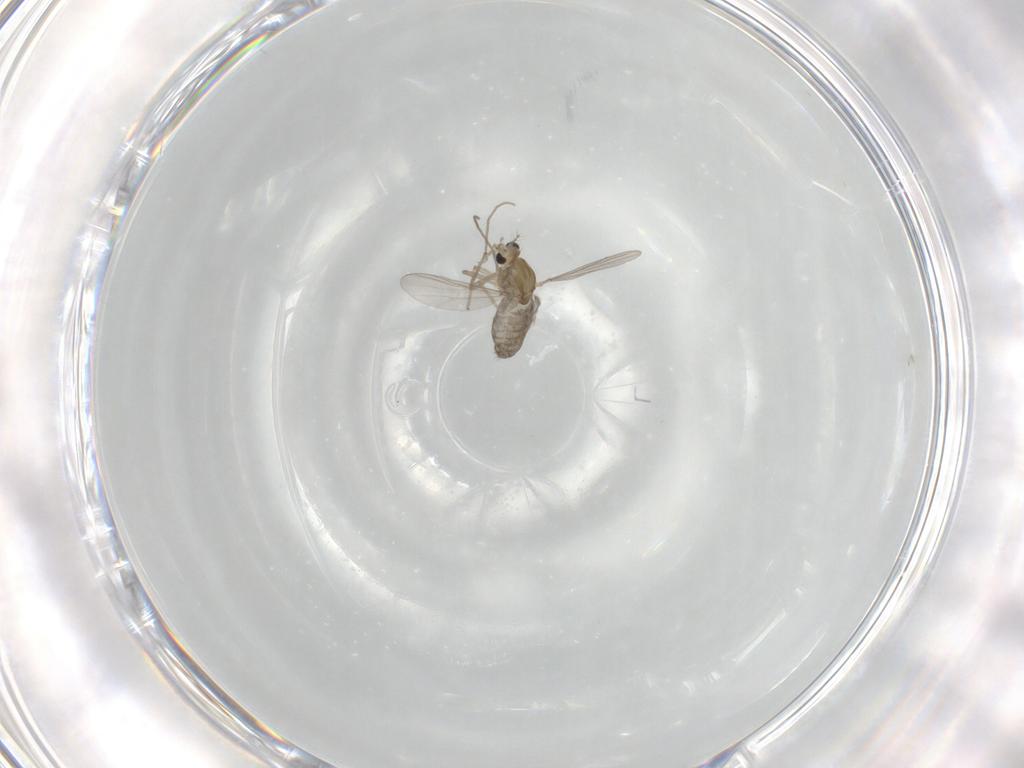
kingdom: Animalia
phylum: Arthropoda
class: Insecta
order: Diptera
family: Chironomidae
